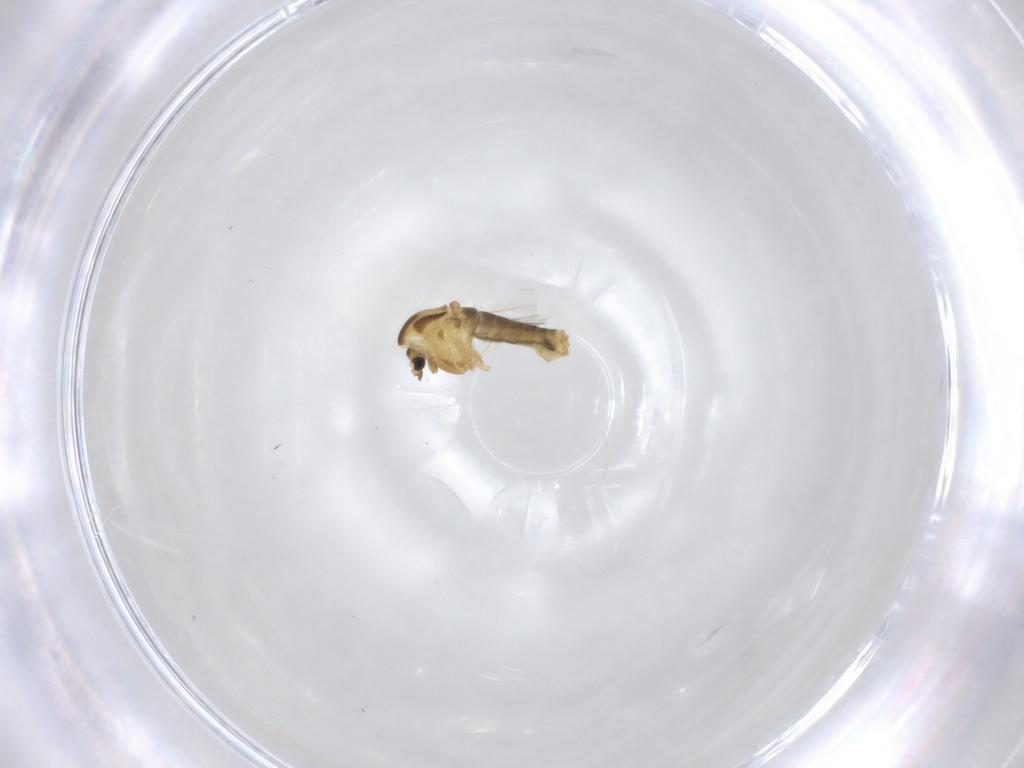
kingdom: Animalia
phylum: Arthropoda
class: Insecta
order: Diptera
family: Chironomidae
